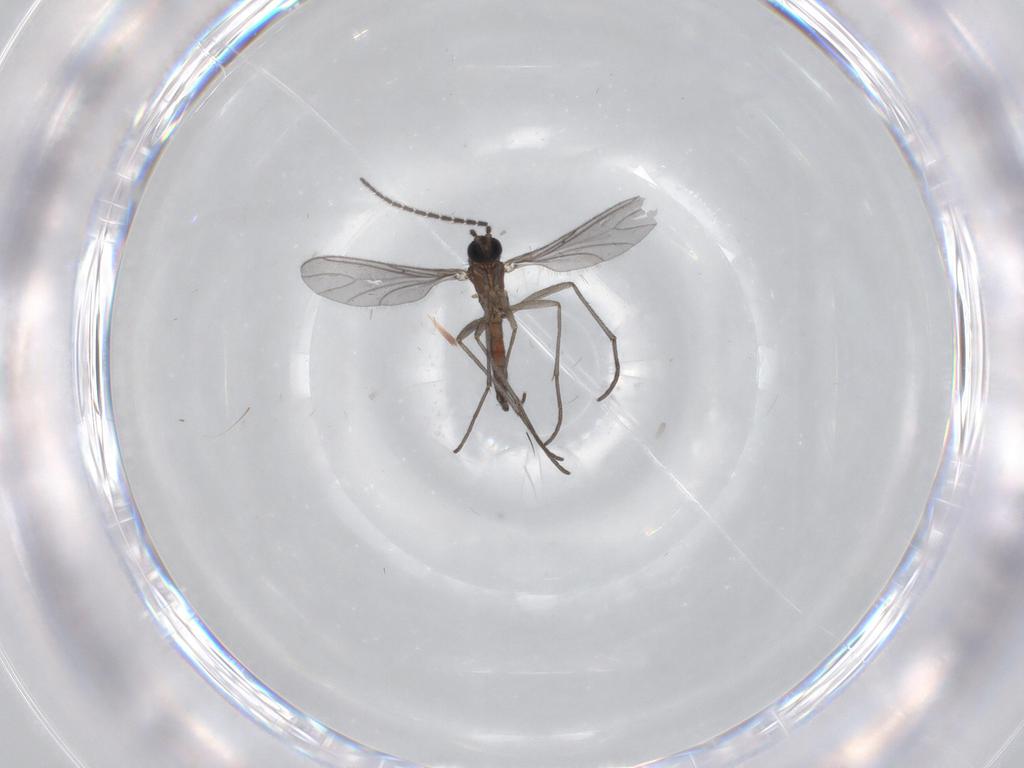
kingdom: Animalia
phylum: Arthropoda
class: Insecta
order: Diptera
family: Sciaridae
